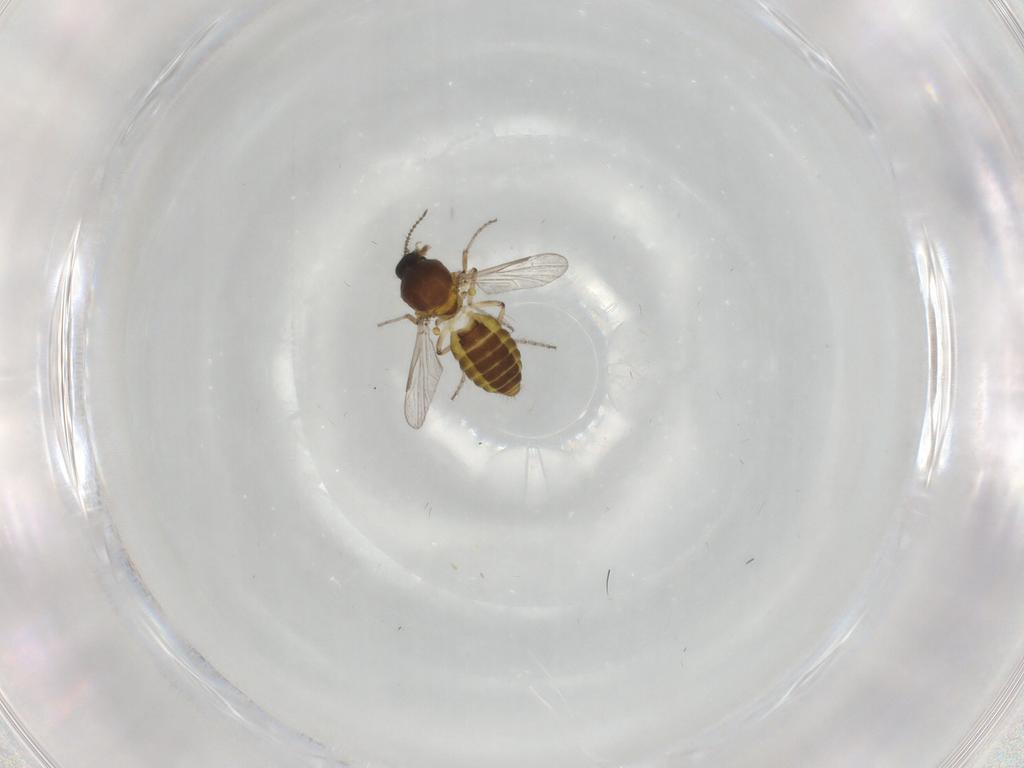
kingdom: Animalia
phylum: Arthropoda
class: Insecta
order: Diptera
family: Ceratopogonidae
